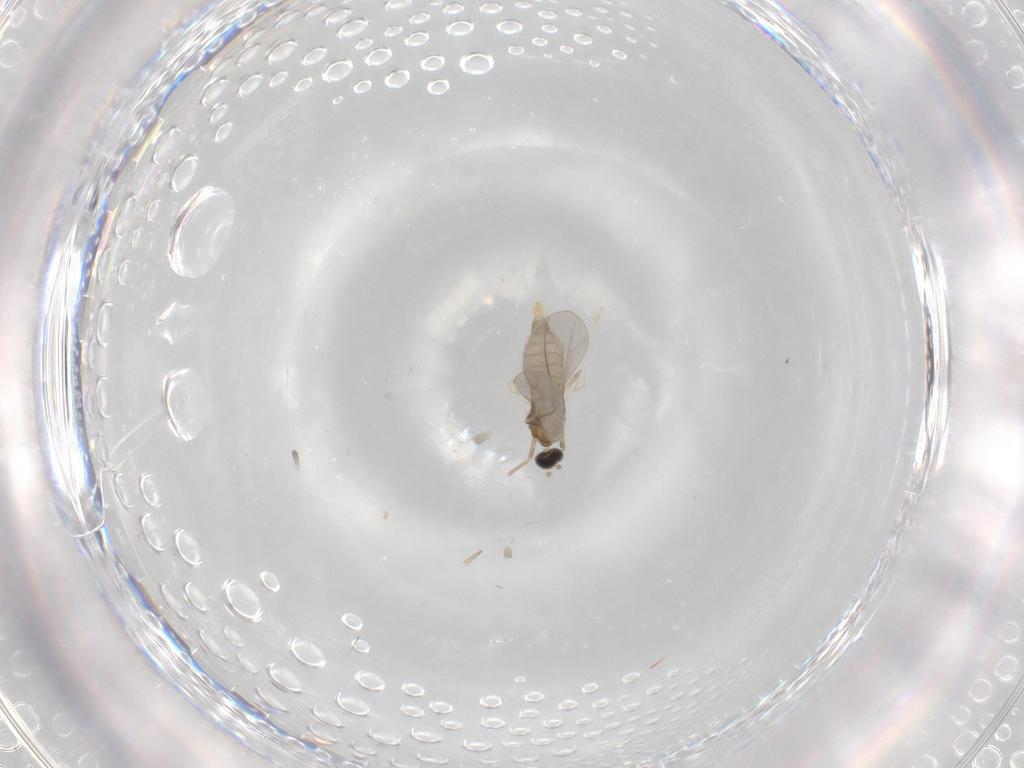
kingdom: Animalia
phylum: Arthropoda
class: Insecta
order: Diptera
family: Cecidomyiidae
